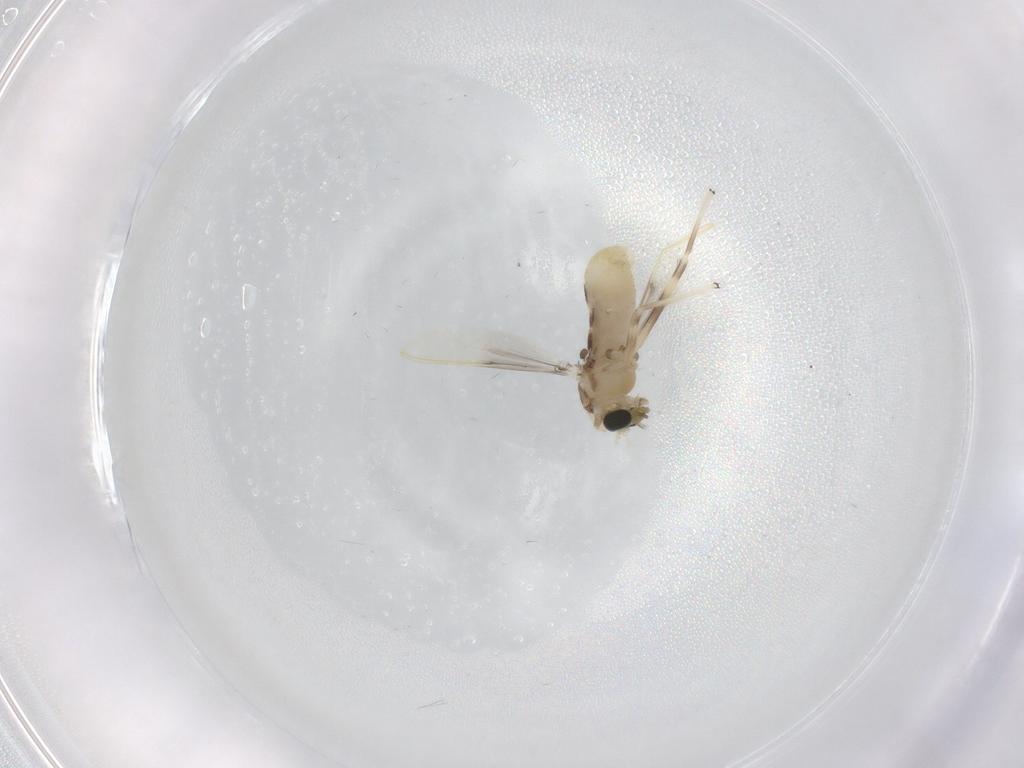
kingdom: Animalia
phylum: Arthropoda
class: Insecta
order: Diptera
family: Chironomidae
